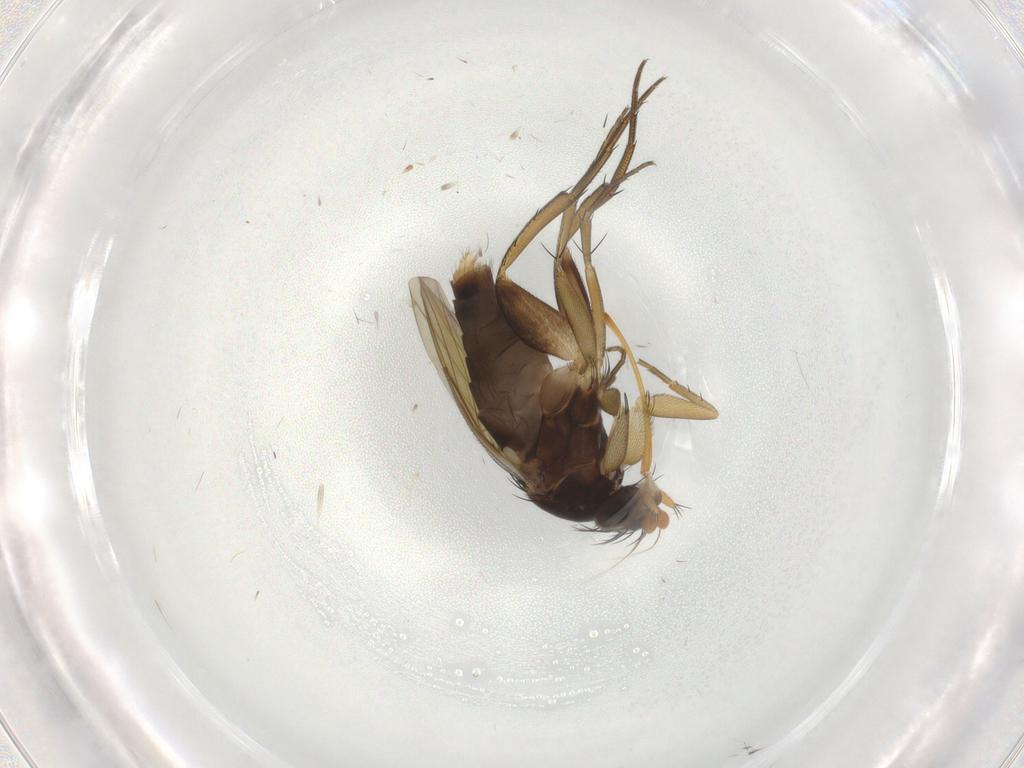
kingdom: Animalia
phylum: Arthropoda
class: Insecta
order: Diptera
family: Phoridae
